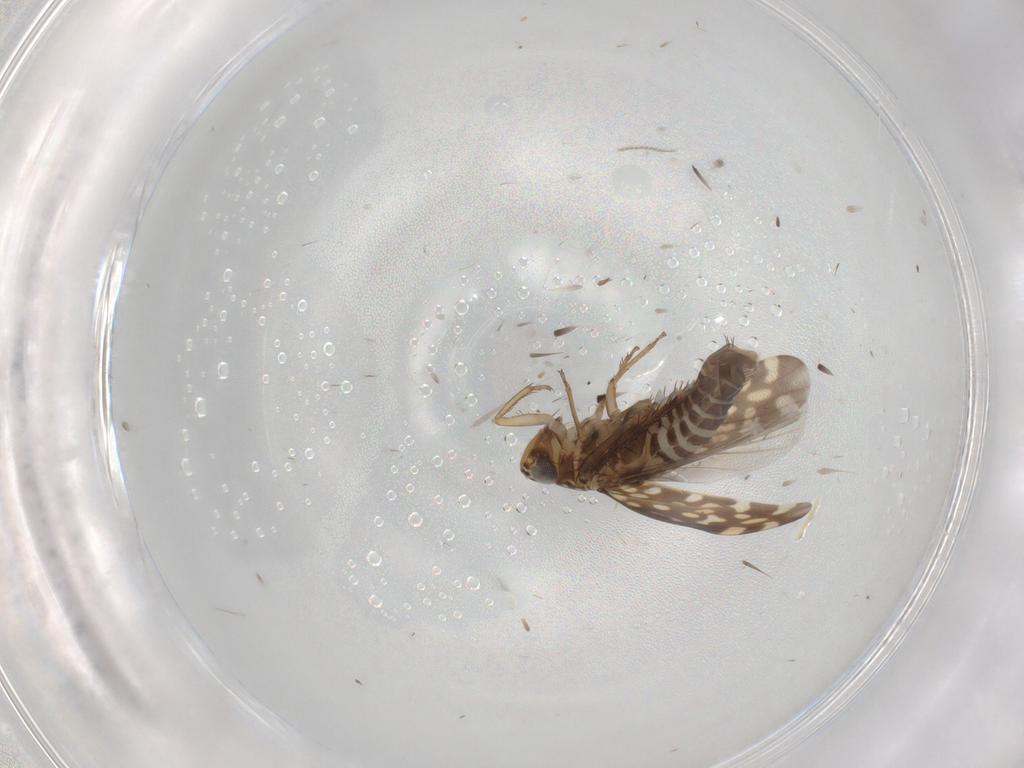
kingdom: Animalia
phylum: Arthropoda
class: Insecta
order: Hemiptera
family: Cicadellidae
